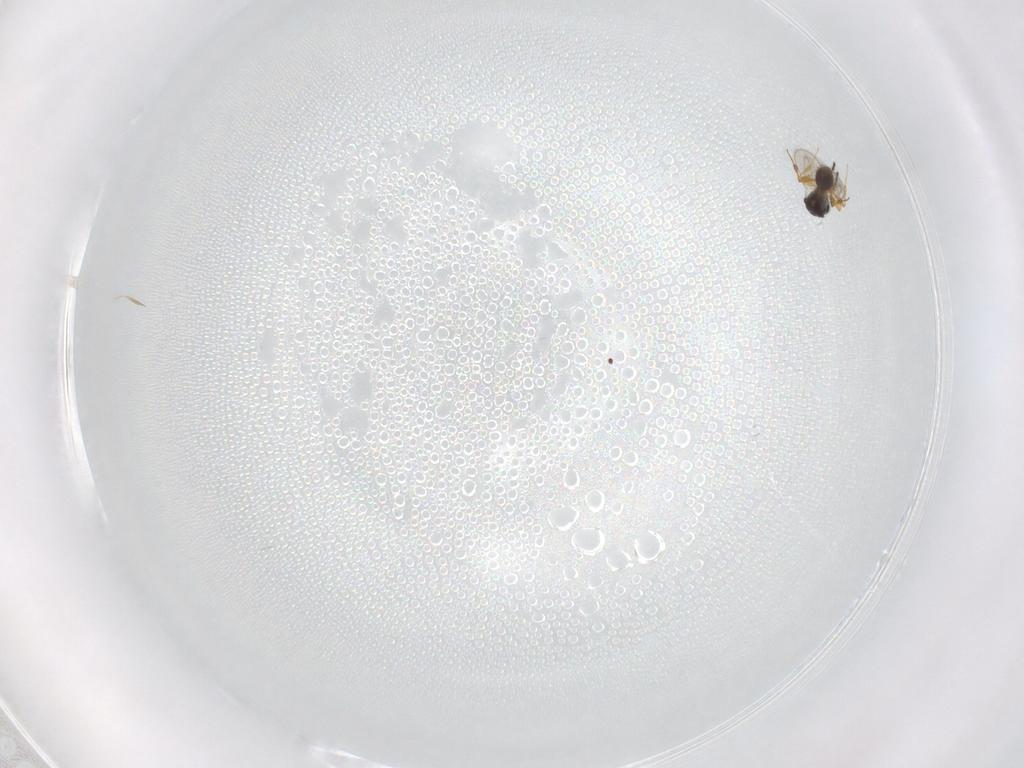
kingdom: Animalia
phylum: Arthropoda
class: Insecta
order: Hymenoptera
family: Platygastridae
